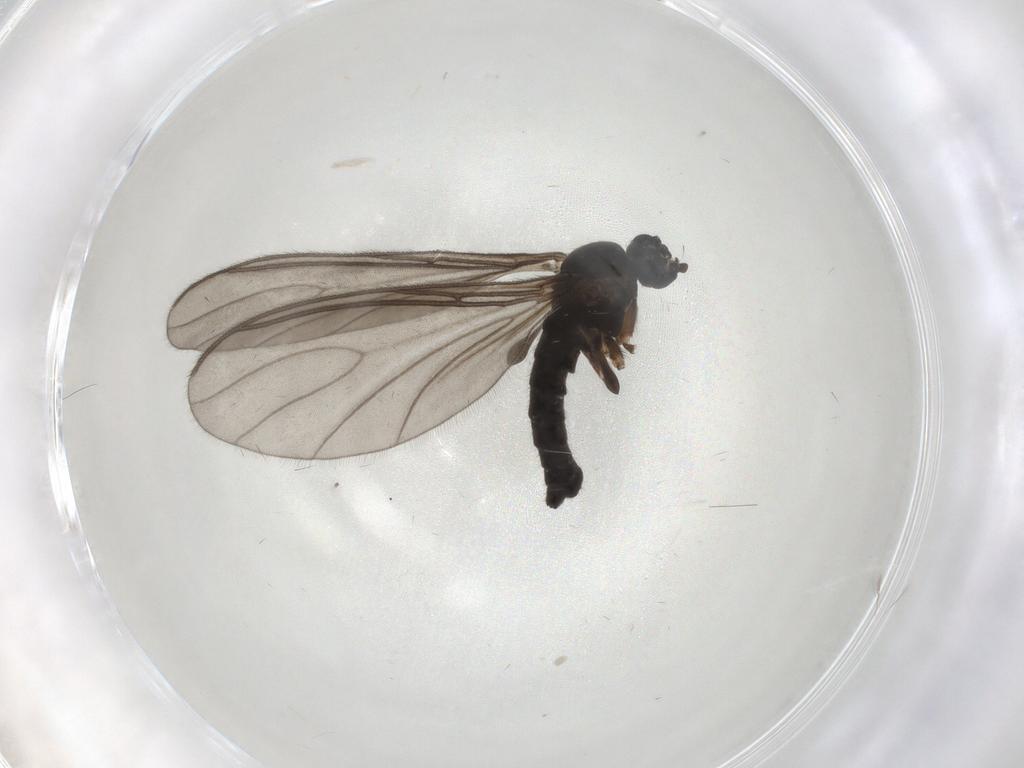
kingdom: Animalia
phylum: Arthropoda
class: Insecta
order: Diptera
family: Sciaridae
